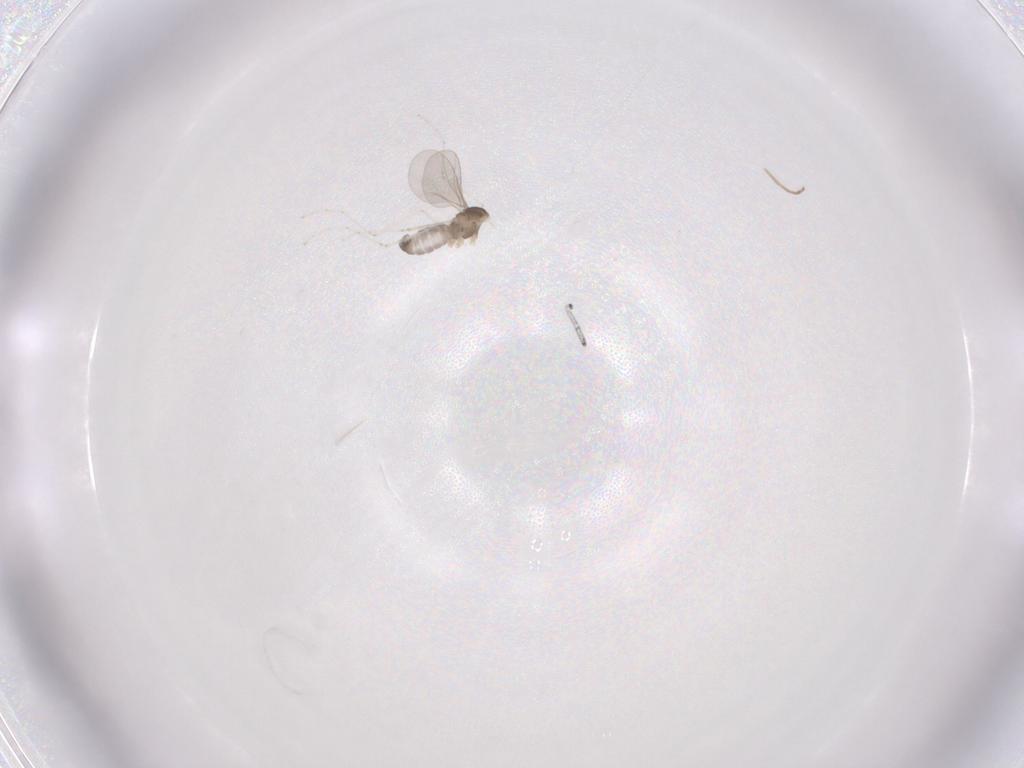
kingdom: Animalia
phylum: Arthropoda
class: Insecta
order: Diptera
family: Cecidomyiidae
